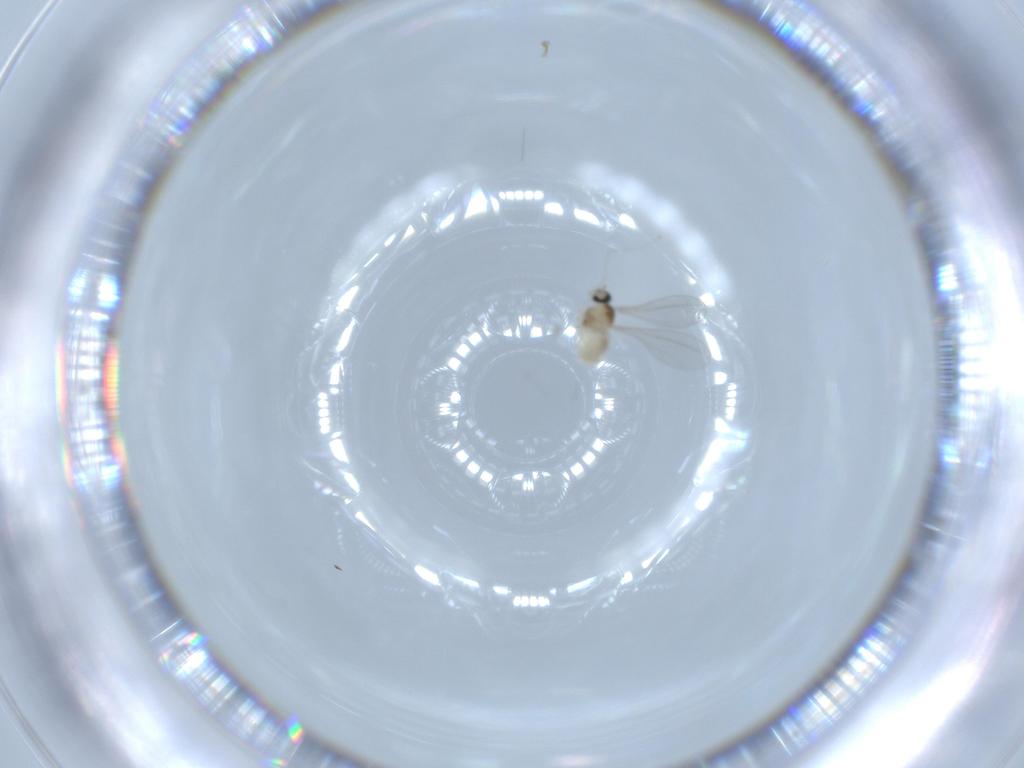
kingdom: Animalia
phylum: Arthropoda
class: Insecta
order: Diptera
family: Cecidomyiidae
